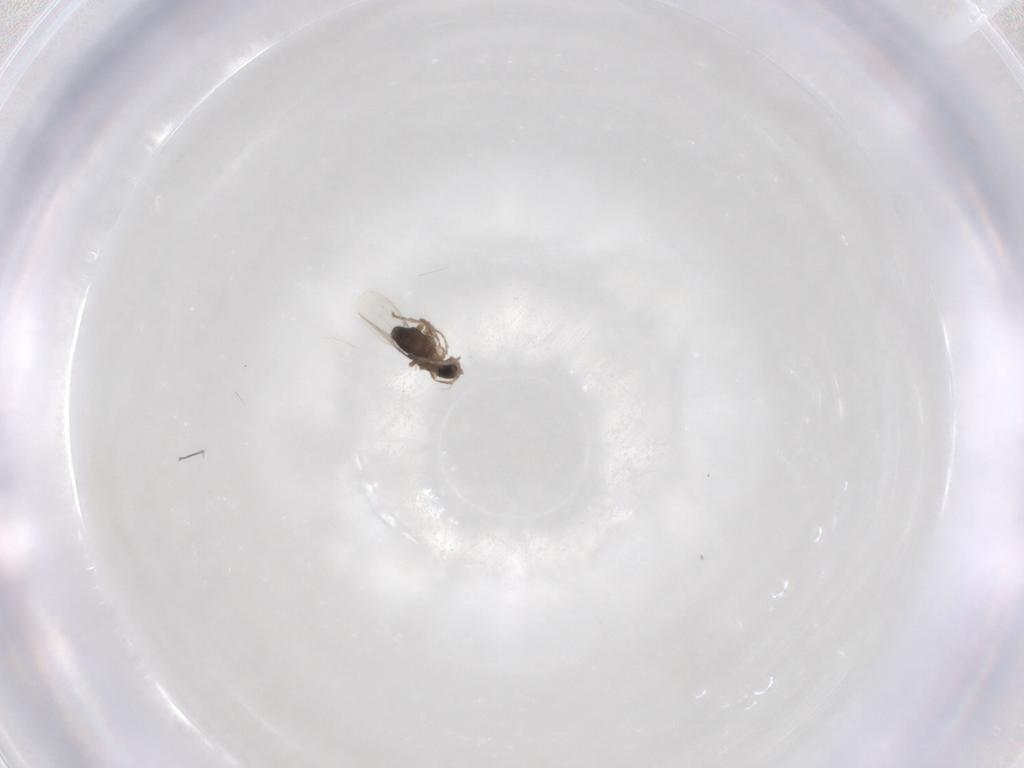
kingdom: Animalia
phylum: Arthropoda
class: Insecta
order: Diptera
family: Phoridae
